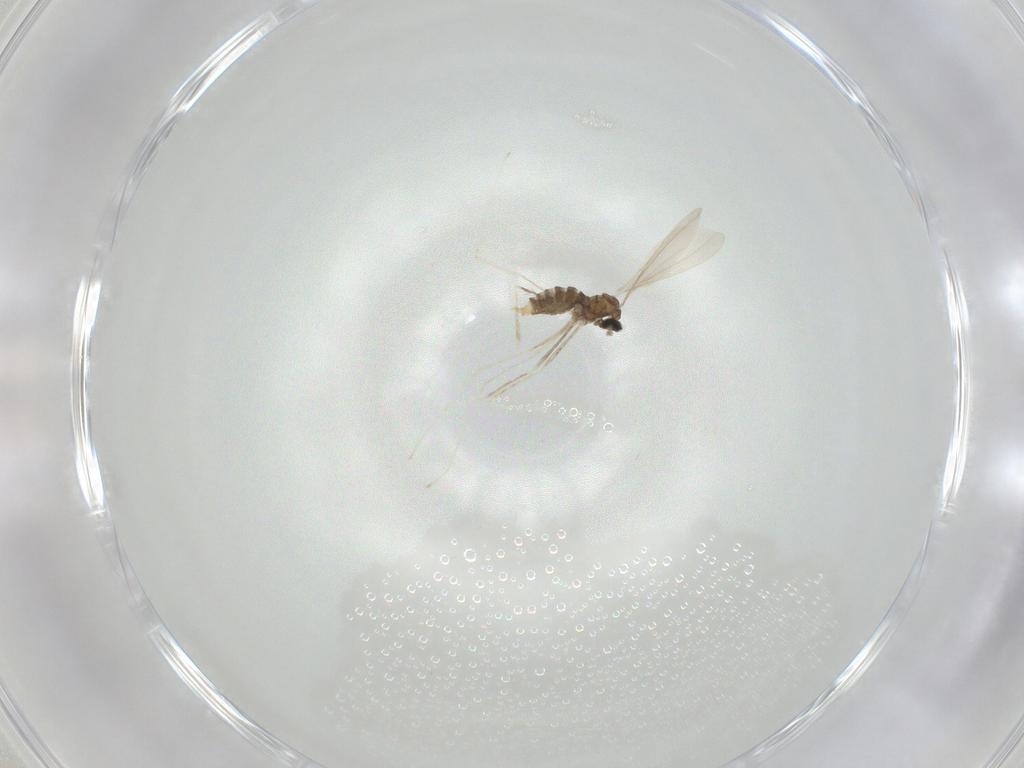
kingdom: Animalia
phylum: Arthropoda
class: Insecta
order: Diptera
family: Cecidomyiidae
